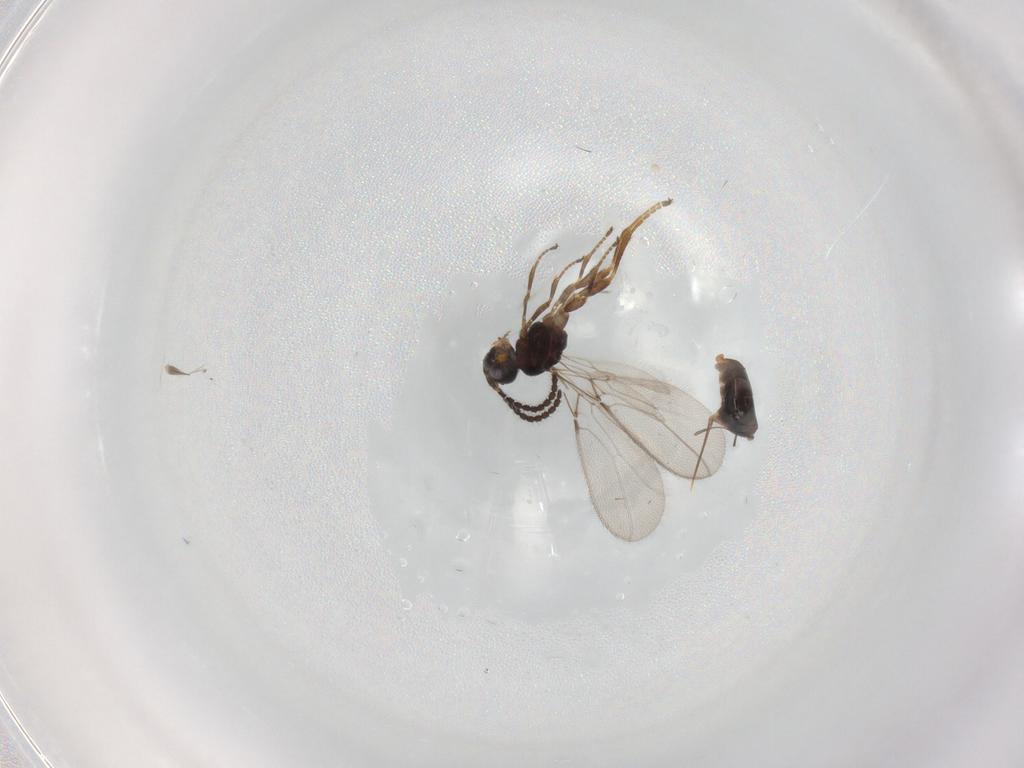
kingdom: Animalia
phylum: Arthropoda
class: Insecta
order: Hymenoptera
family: Braconidae
